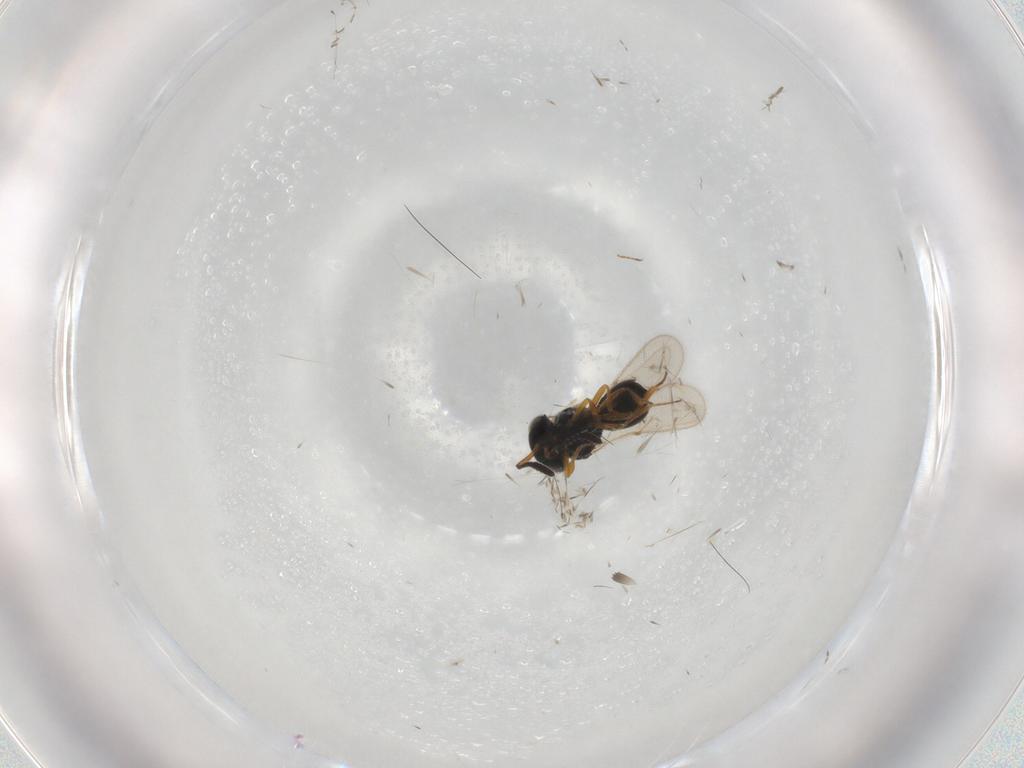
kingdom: Animalia
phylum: Arthropoda
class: Insecta
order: Hymenoptera
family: Scelionidae
